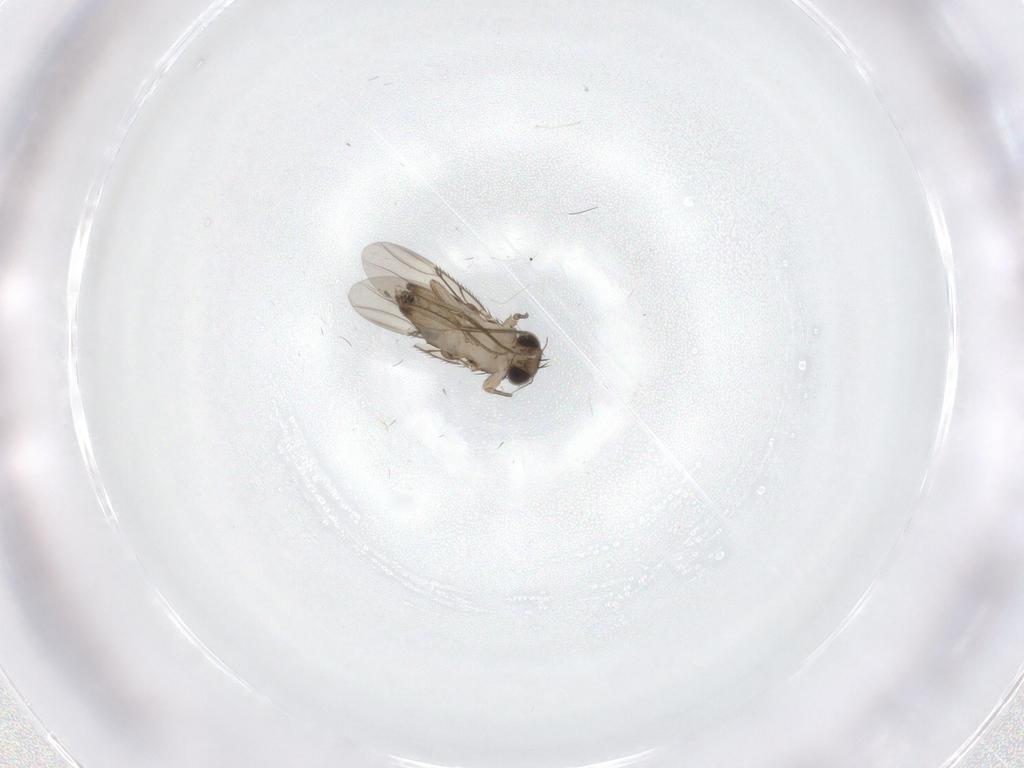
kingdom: Animalia
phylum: Arthropoda
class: Insecta
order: Diptera
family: Phoridae
